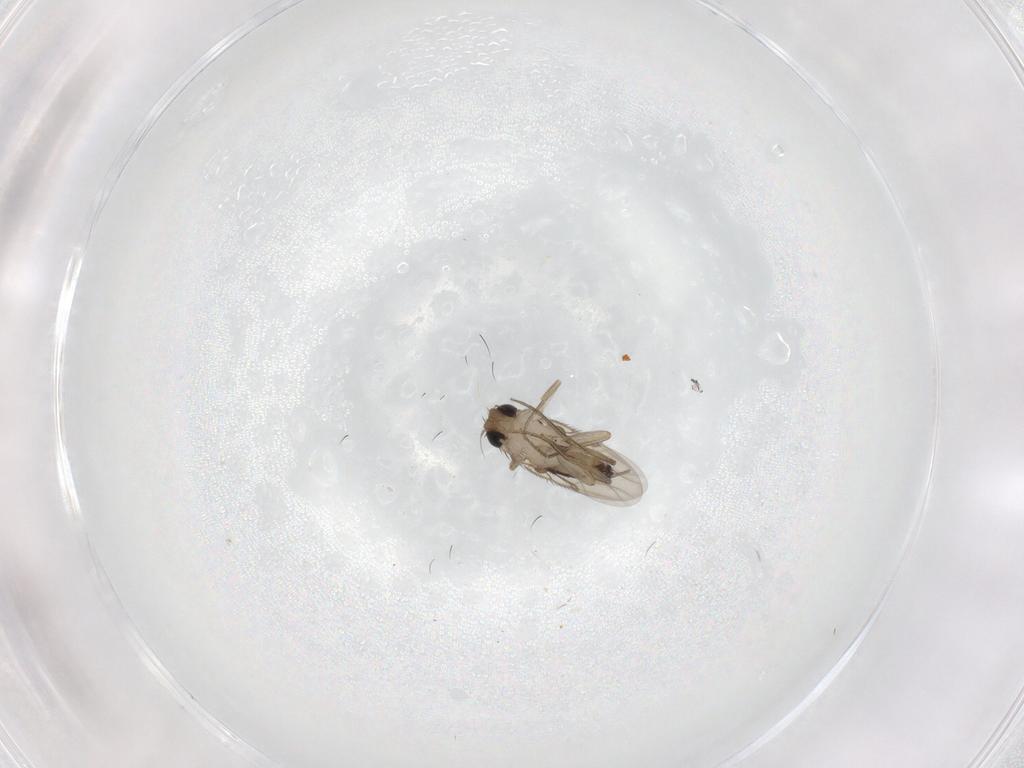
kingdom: Animalia
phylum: Arthropoda
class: Insecta
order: Diptera
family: Phoridae
